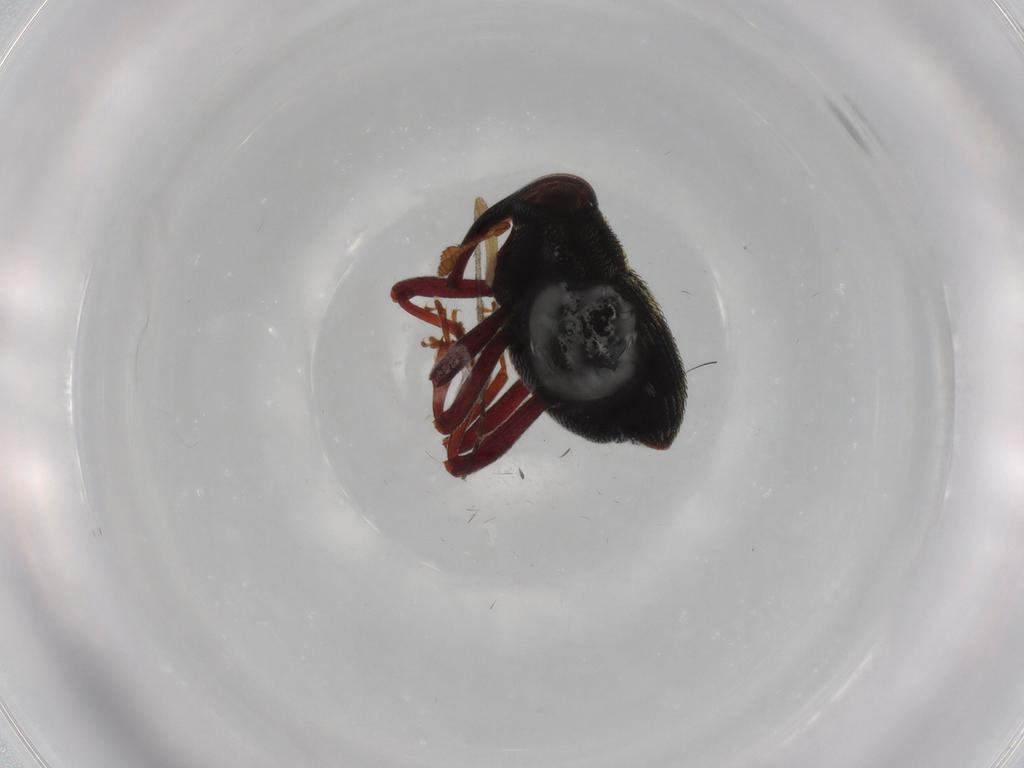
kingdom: Animalia
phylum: Arthropoda
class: Insecta
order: Coleoptera
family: Curculionidae
